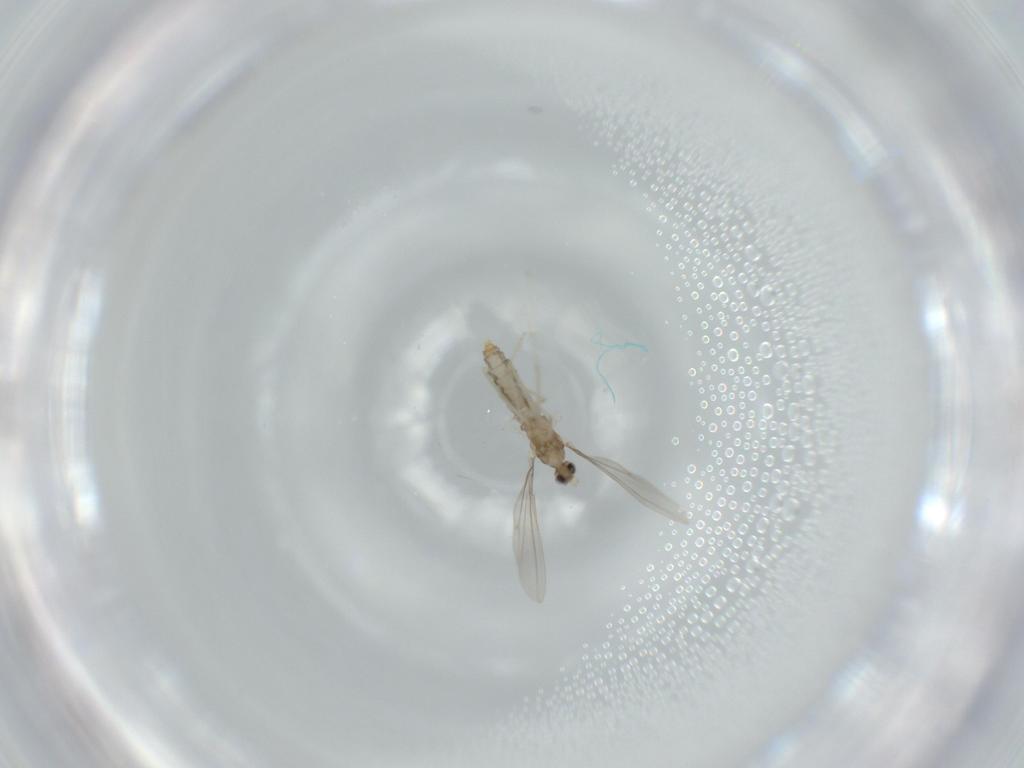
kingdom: Animalia
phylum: Arthropoda
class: Insecta
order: Diptera
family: Cecidomyiidae
